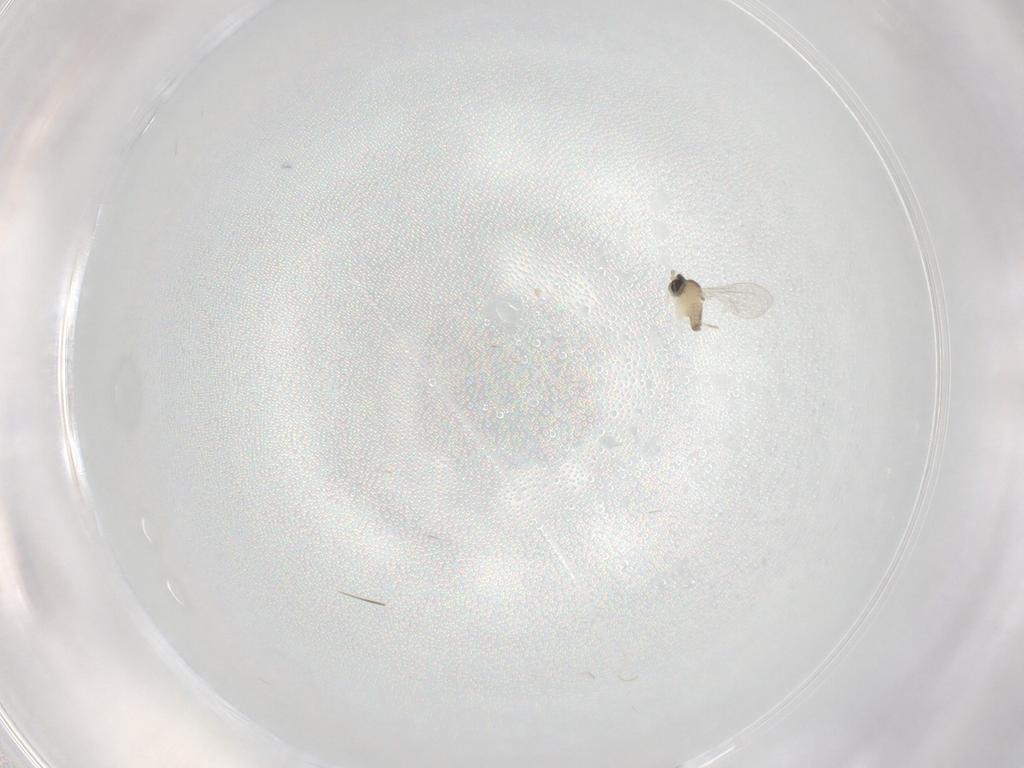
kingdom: Animalia
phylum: Arthropoda
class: Insecta
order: Diptera
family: Cecidomyiidae
